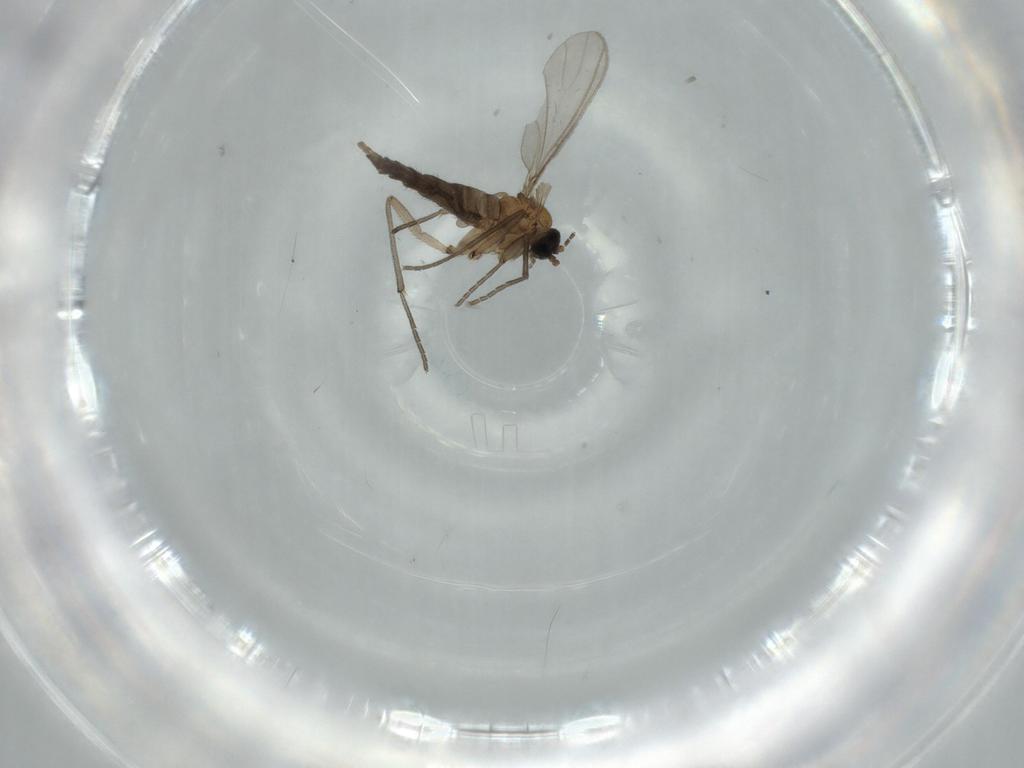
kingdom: Animalia
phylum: Arthropoda
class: Insecta
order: Diptera
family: Sciaridae
